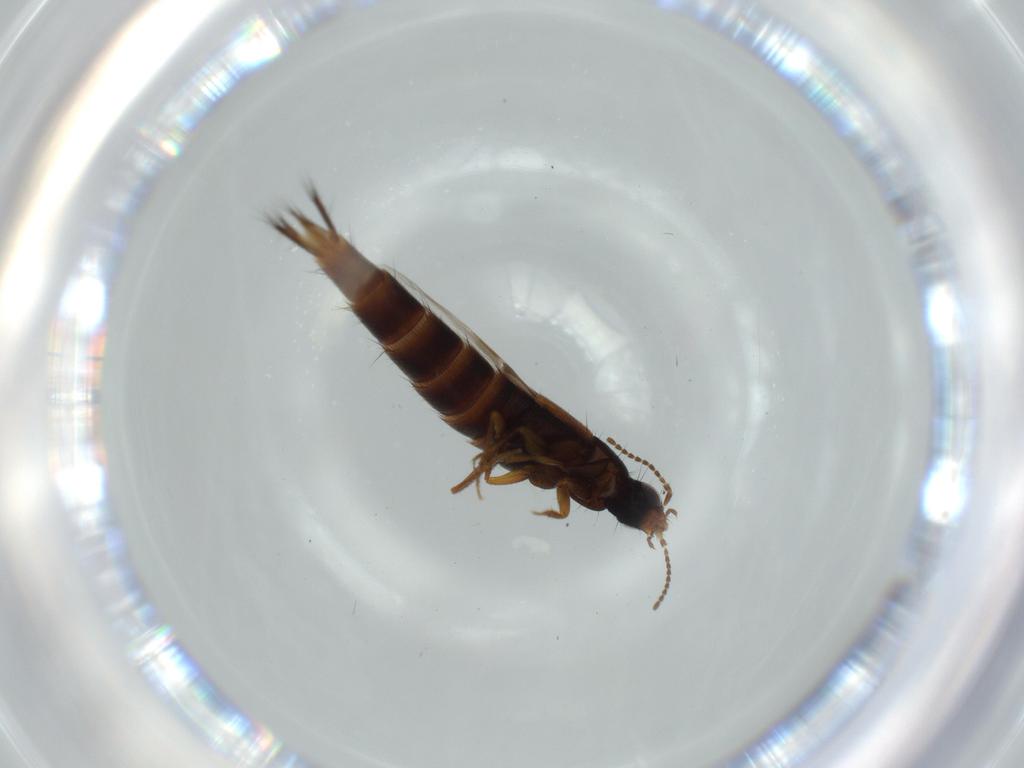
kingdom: Animalia
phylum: Arthropoda
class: Insecta
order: Coleoptera
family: Staphylinidae
